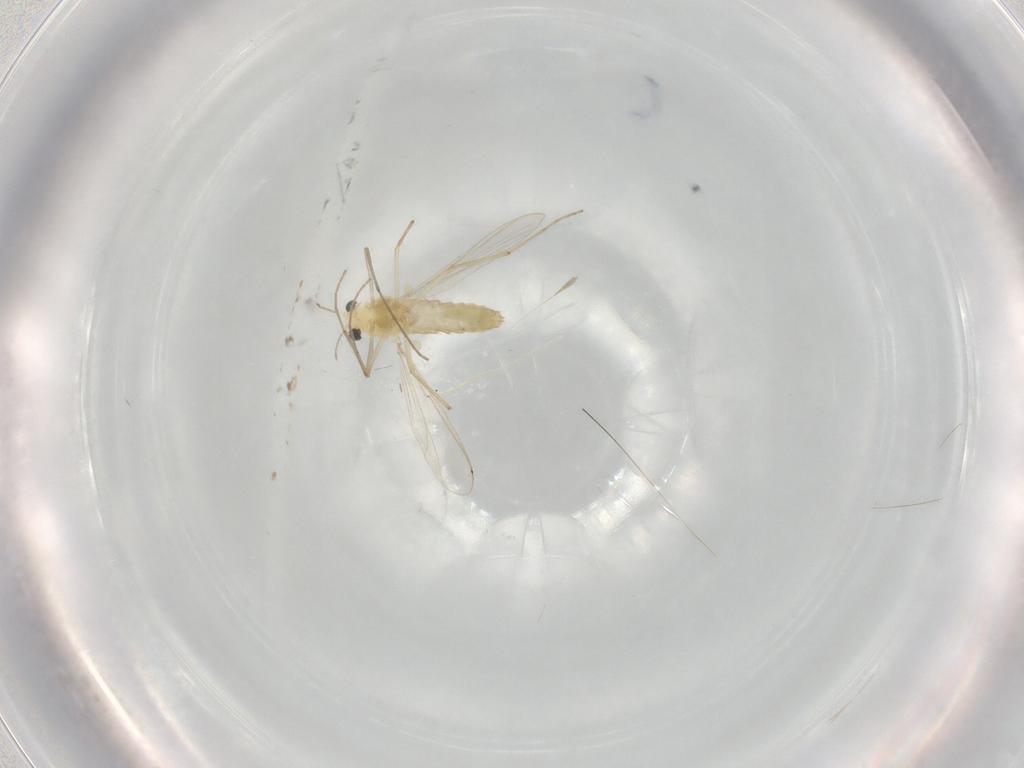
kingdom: Animalia
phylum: Arthropoda
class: Insecta
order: Diptera
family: Chironomidae
